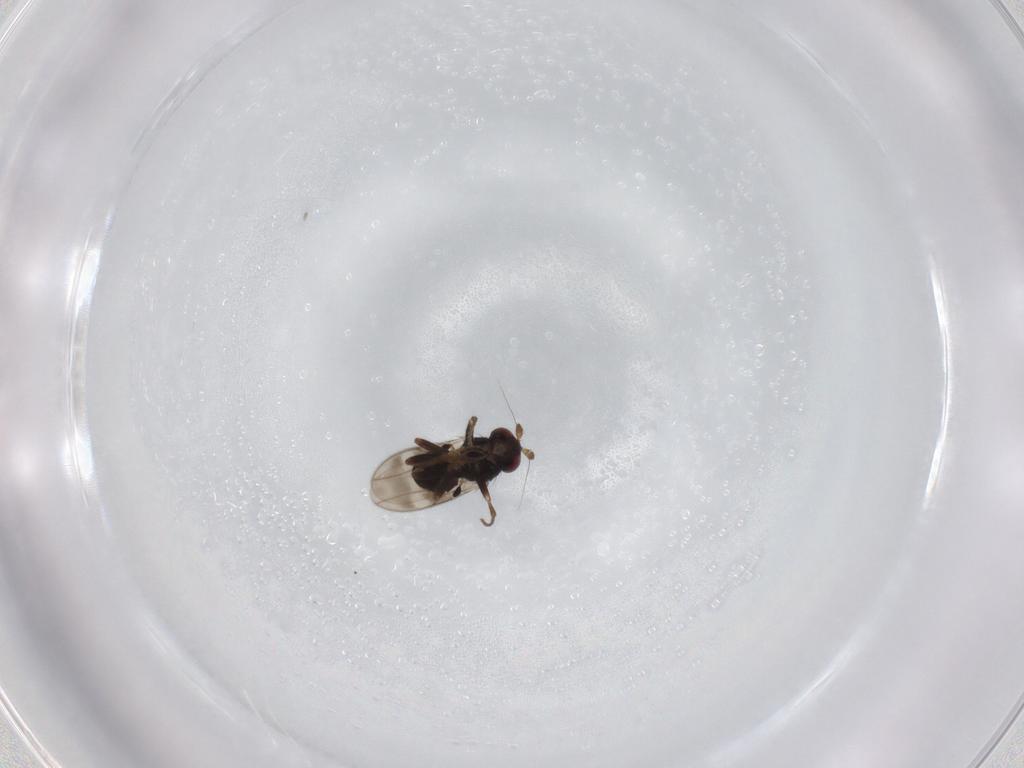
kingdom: Animalia
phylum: Arthropoda
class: Insecta
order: Diptera
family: Sphaeroceridae
